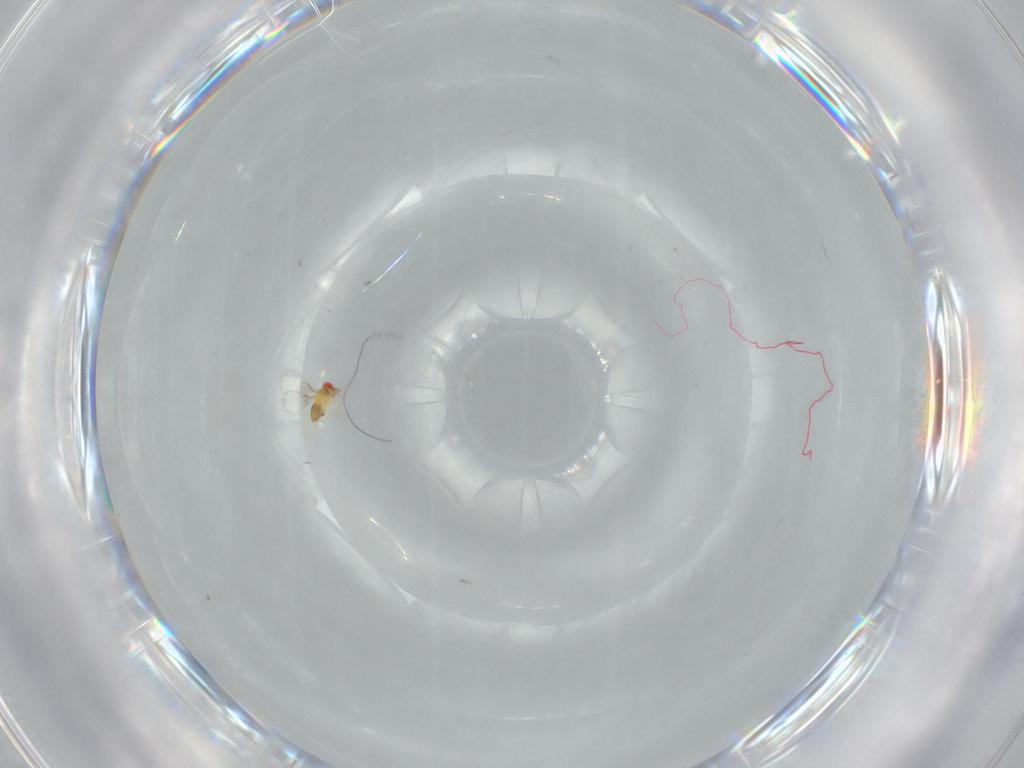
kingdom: Animalia
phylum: Arthropoda
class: Insecta
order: Hymenoptera
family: Trichogrammatidae
